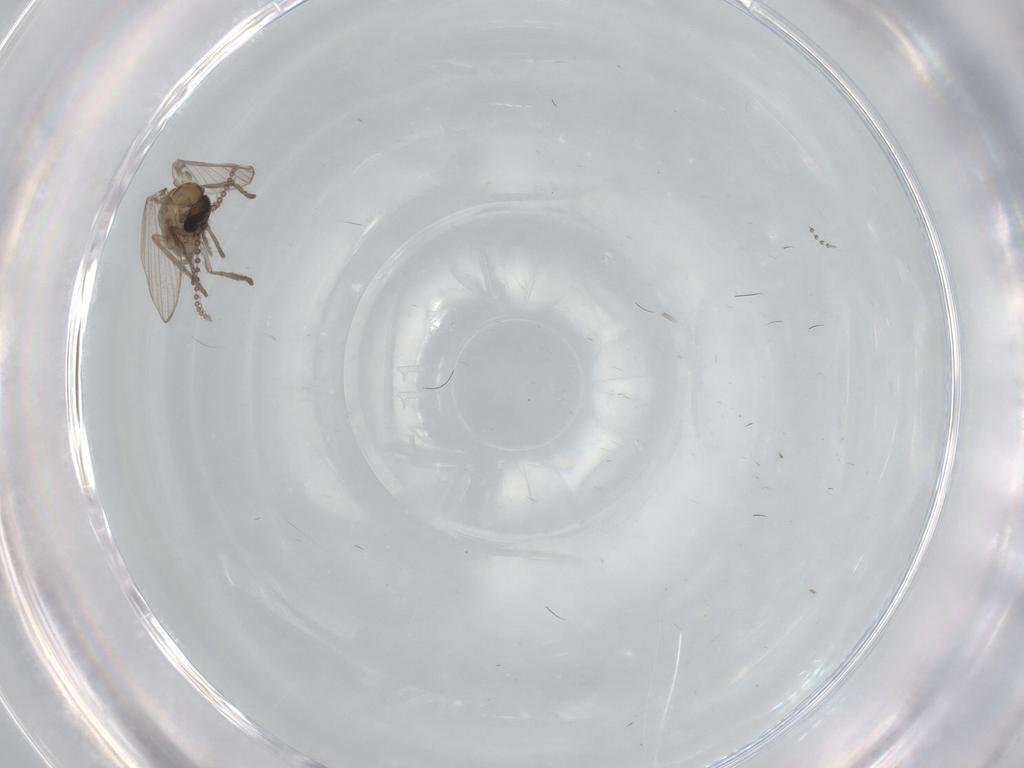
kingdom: Animalia
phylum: Arthropoda
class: Insecta
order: Diptera
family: Psychodidae
